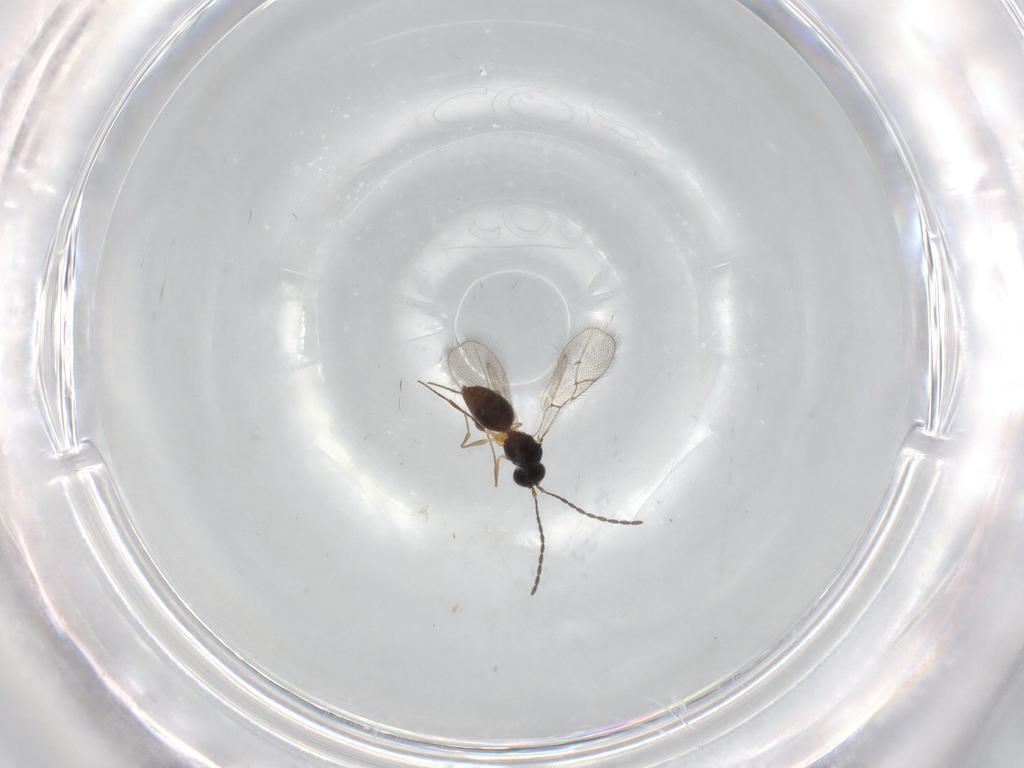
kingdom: Animalia
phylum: Arthropoda
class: Insecta
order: Hymenoptera
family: Figitidae
